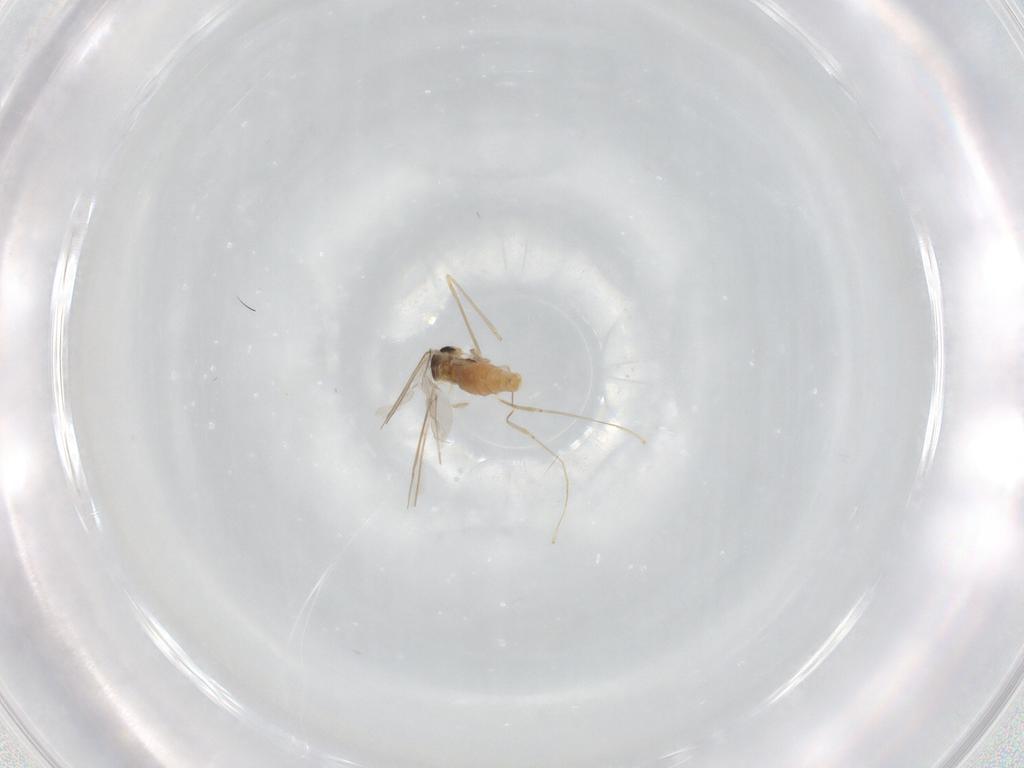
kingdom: Animalia
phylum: Arthropoda
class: Insecta
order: Diptera
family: Cecidomyiidae
